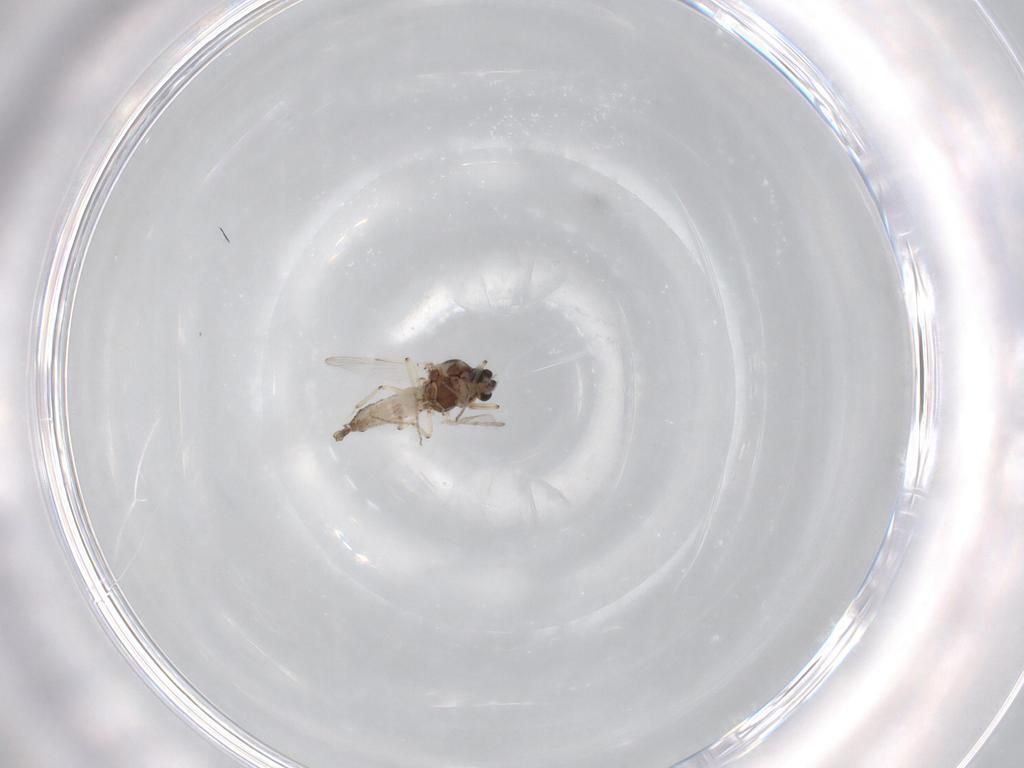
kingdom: Animalia
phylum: Arthropoda
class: Insecta
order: Diptera
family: Ceratopogonidae
